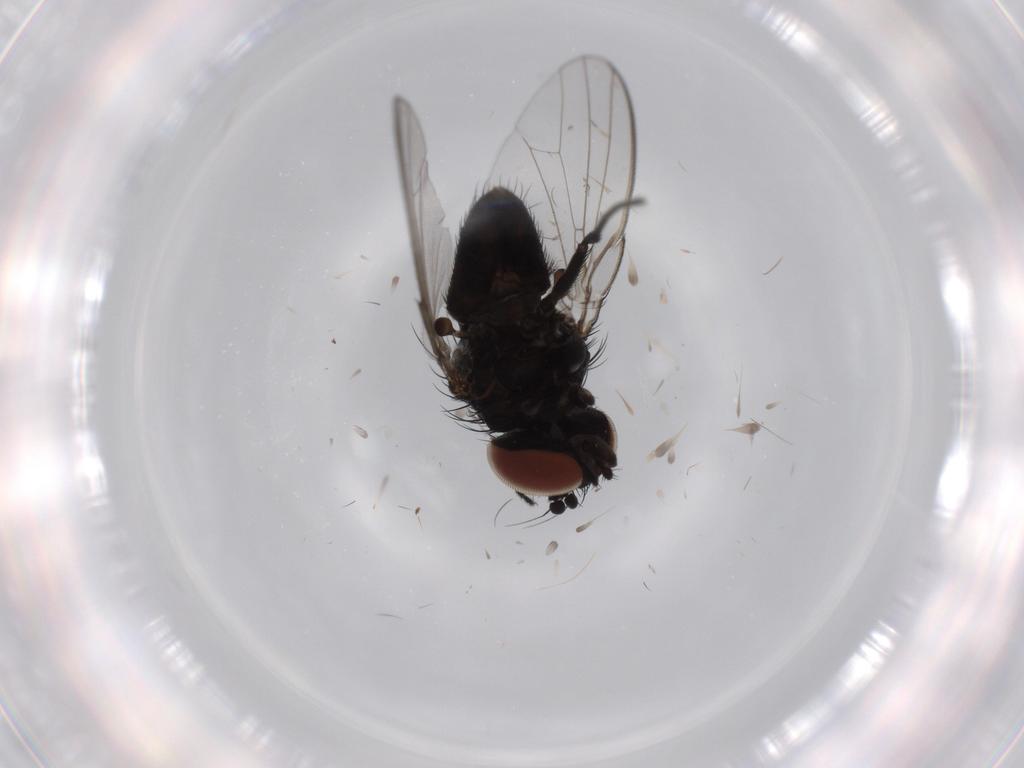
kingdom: Animalia
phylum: Arthropoda
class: Insecta
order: Diptera
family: Milichiidae
